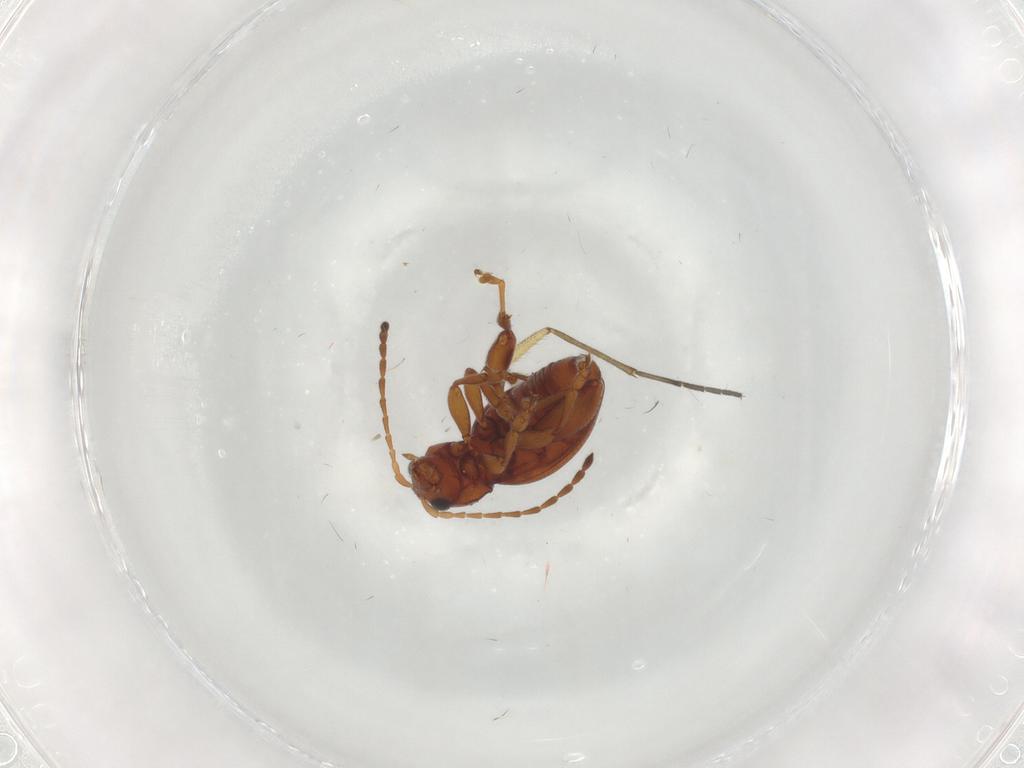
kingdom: Animalia
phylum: Arthropoda
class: Insecta
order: Coleoptera
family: Chrysomelidae
